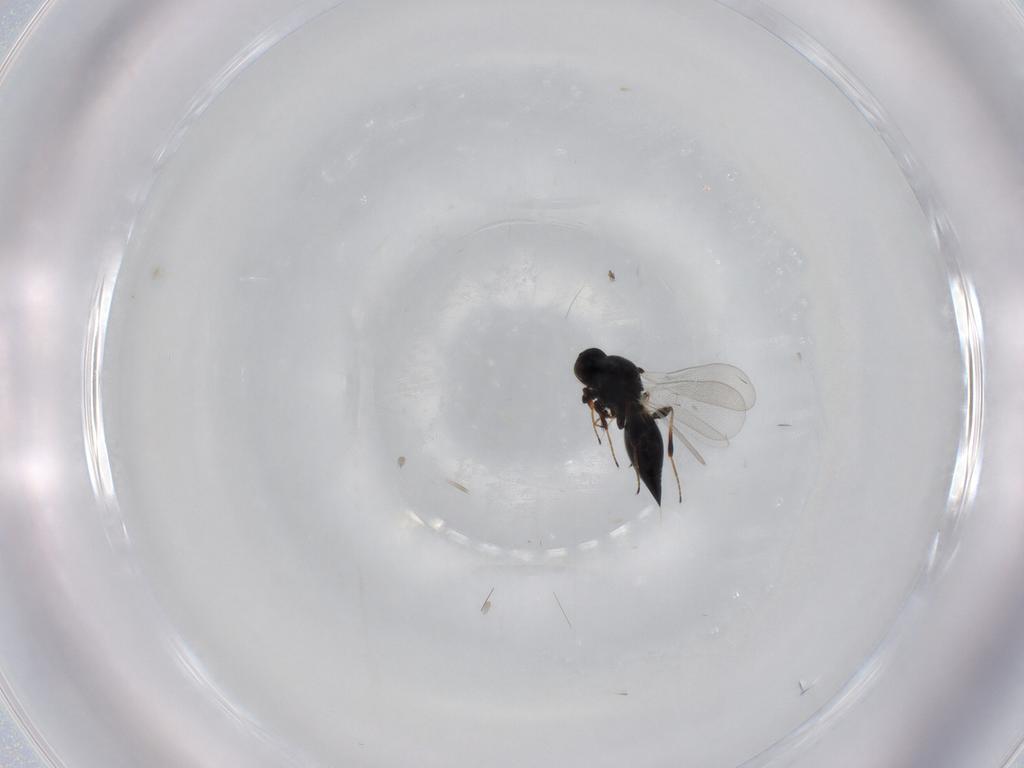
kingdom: Animalia
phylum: Arthropoda
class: Insecta
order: Hymenoptera
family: Platygastridae
